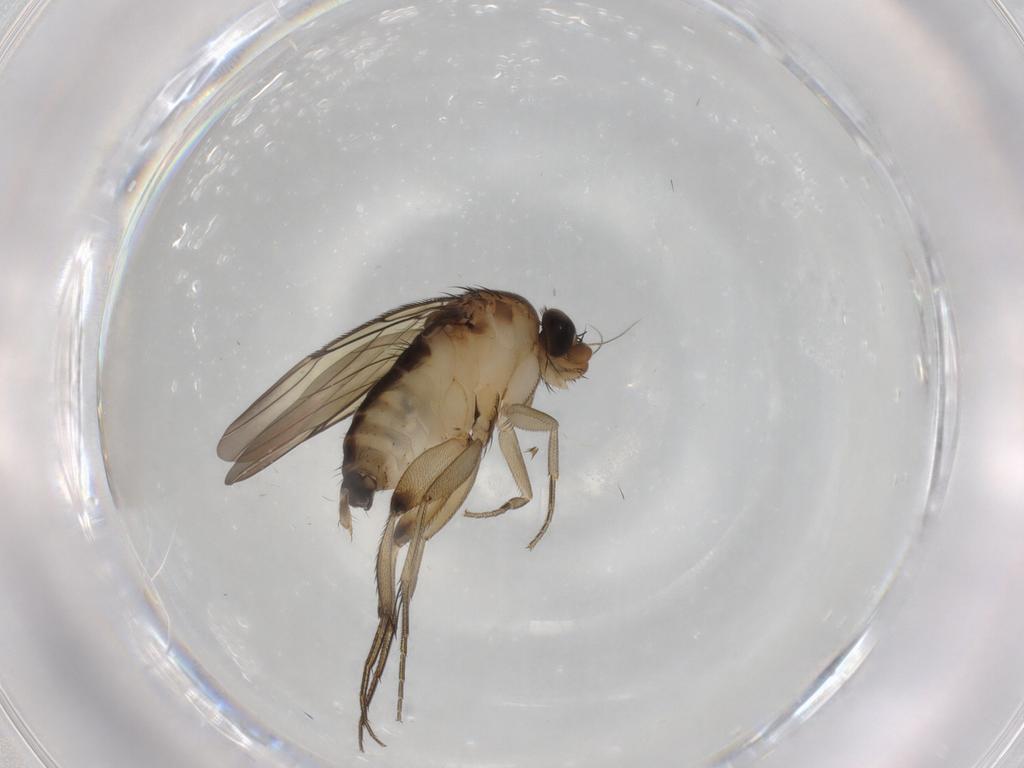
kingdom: Animalia
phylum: Arthropoda
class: Insecta
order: Diptera
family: Phoridae
